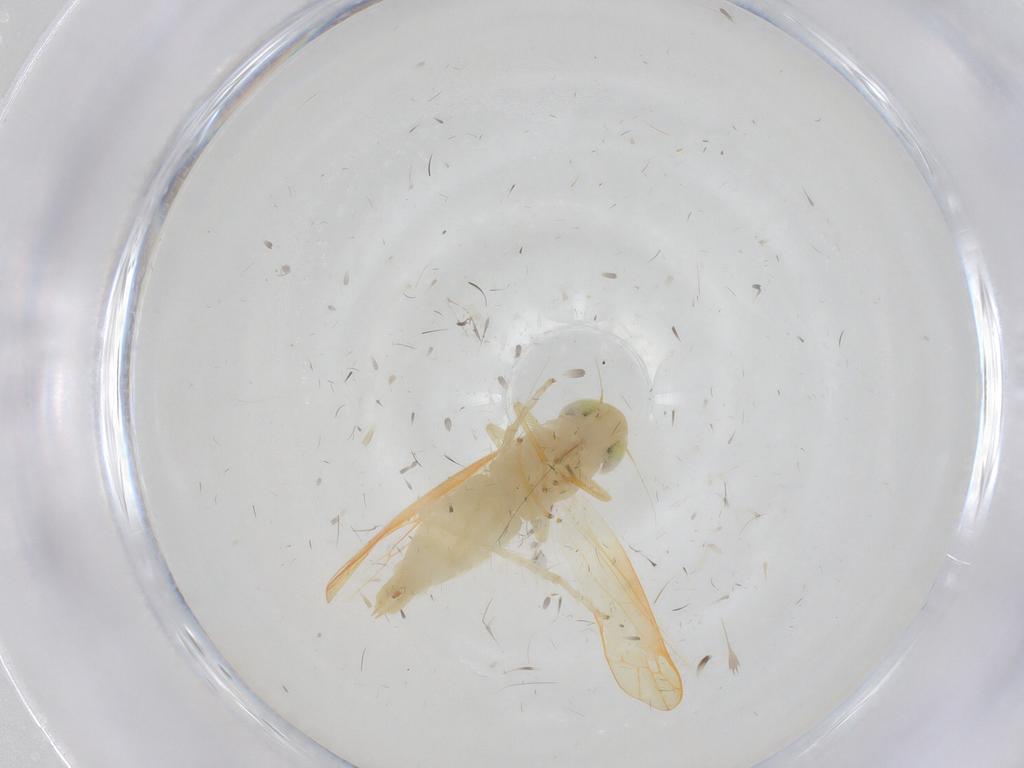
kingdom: Animalia
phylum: Arthropoda
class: Insecta
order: Hemiptera
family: Cicadellidae
